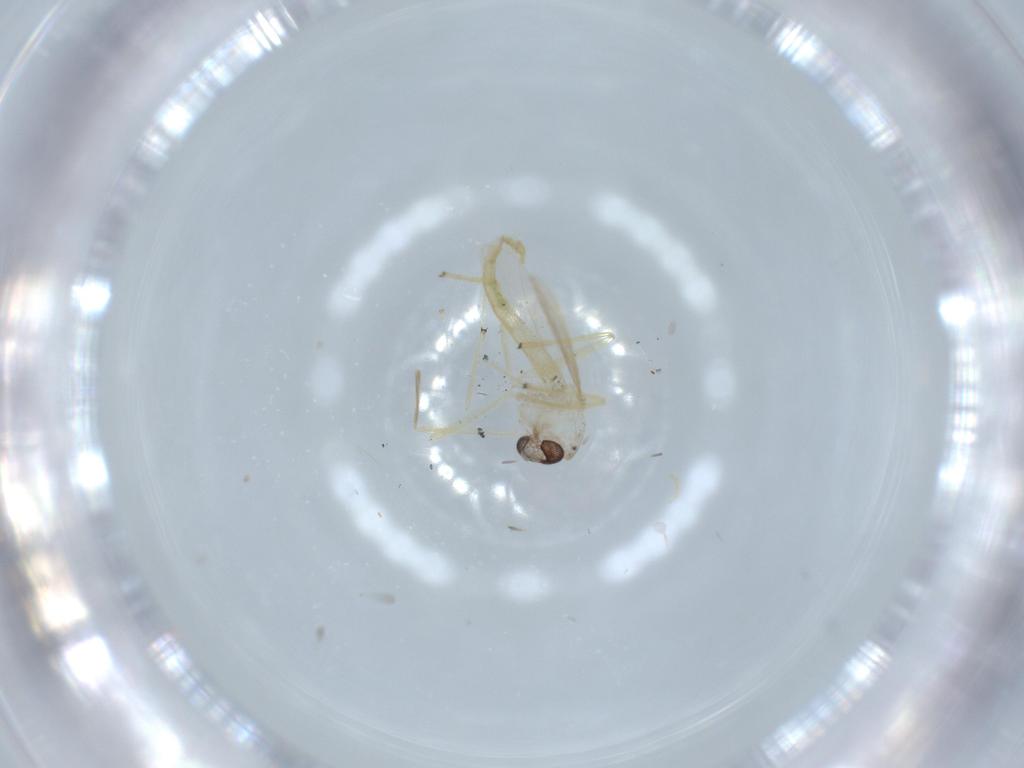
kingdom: Animalia
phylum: Arthropoda
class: Insecta
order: Diptera
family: Chironomidae
